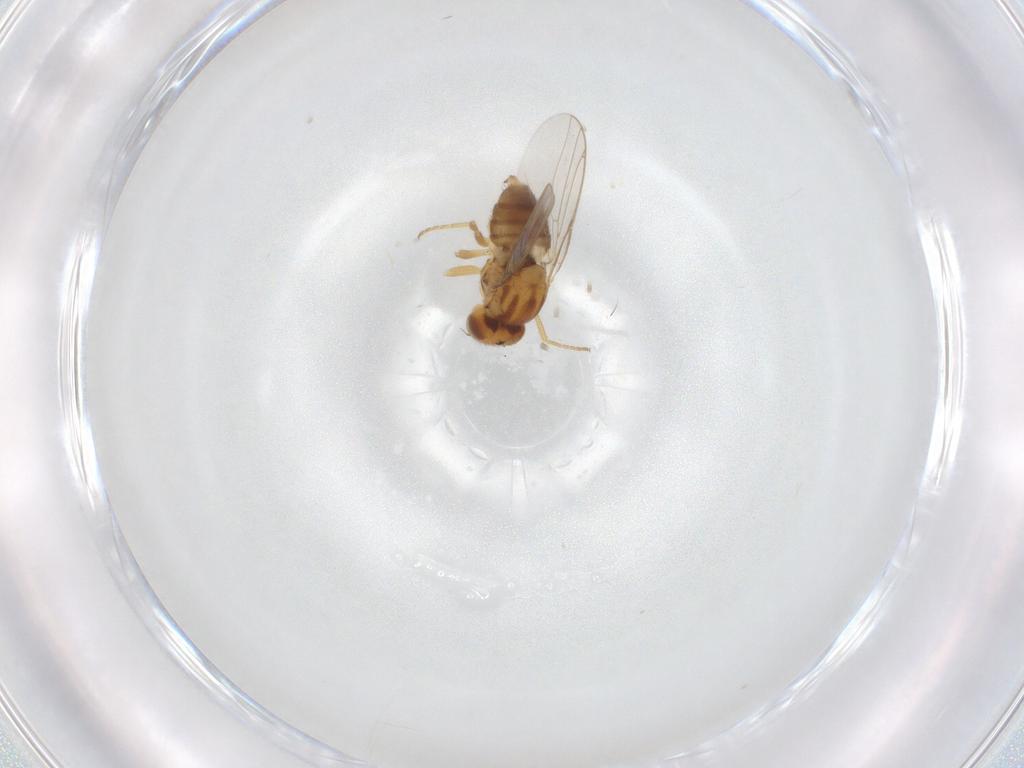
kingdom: Animalia
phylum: Arthropoda
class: Insecta
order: Diptera
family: Chloropidae
